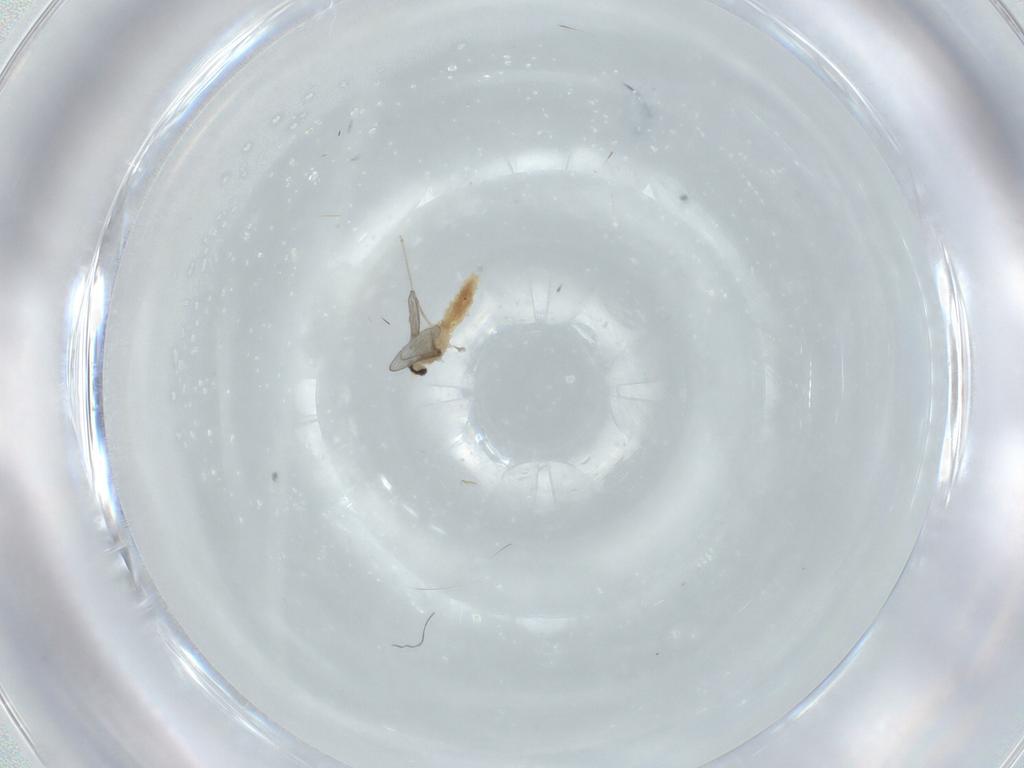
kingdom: Animalia
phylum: Arthropoda
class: Insecta
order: Diptera
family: Cecidomyiidae
